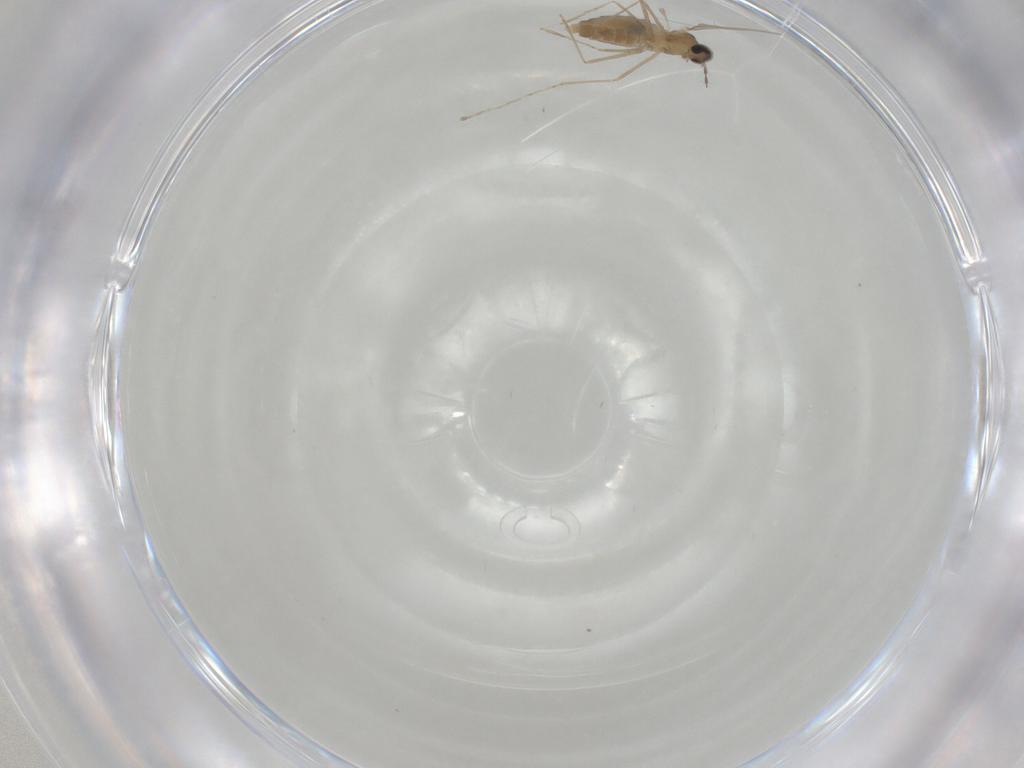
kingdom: Animalia
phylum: Arthropoda
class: Insecta
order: Diptera
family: Cecidomyiidae
